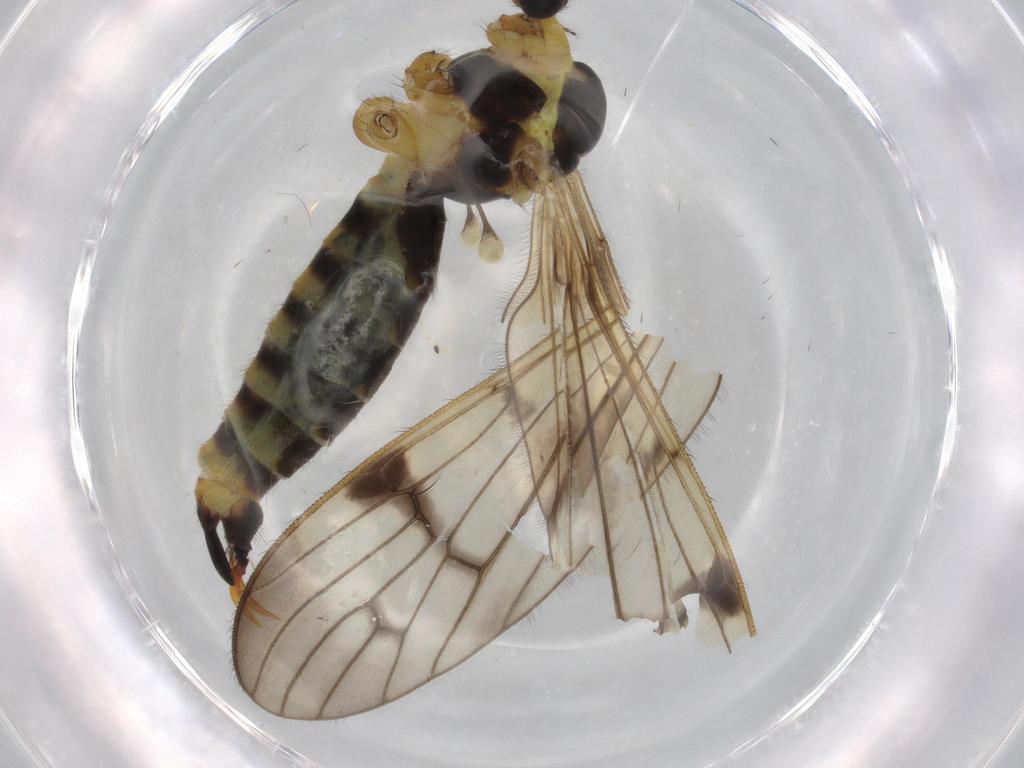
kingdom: Animalia
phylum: Arthropoda
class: Insecta
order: Diptera
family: Limoniidae
